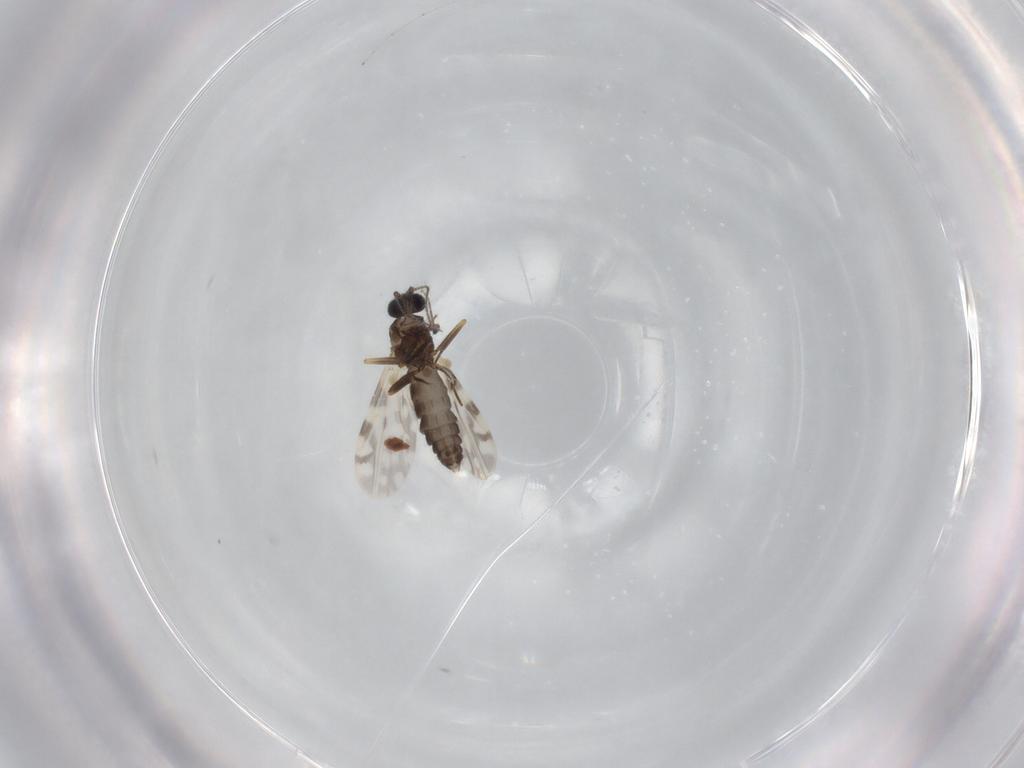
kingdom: Animalia
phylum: Arthropoda
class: Insecta
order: Diptera
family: Ceratopogonidae
